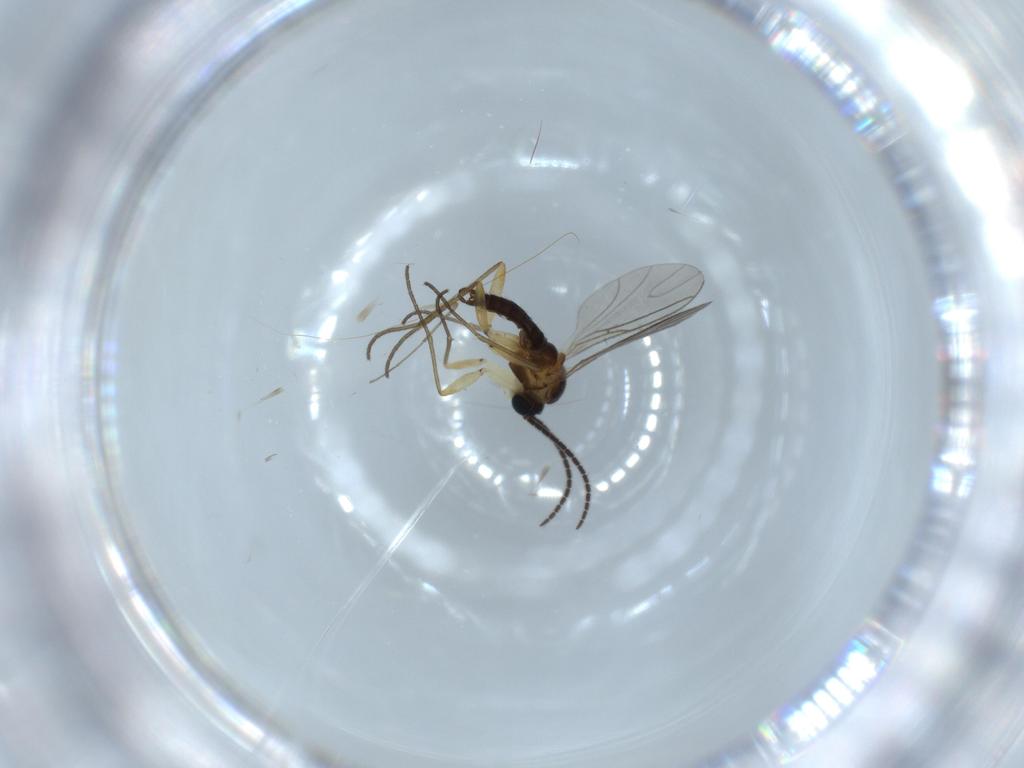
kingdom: Animalia
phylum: Arthropoda
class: Insecta
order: Diptera
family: Chironomidae
